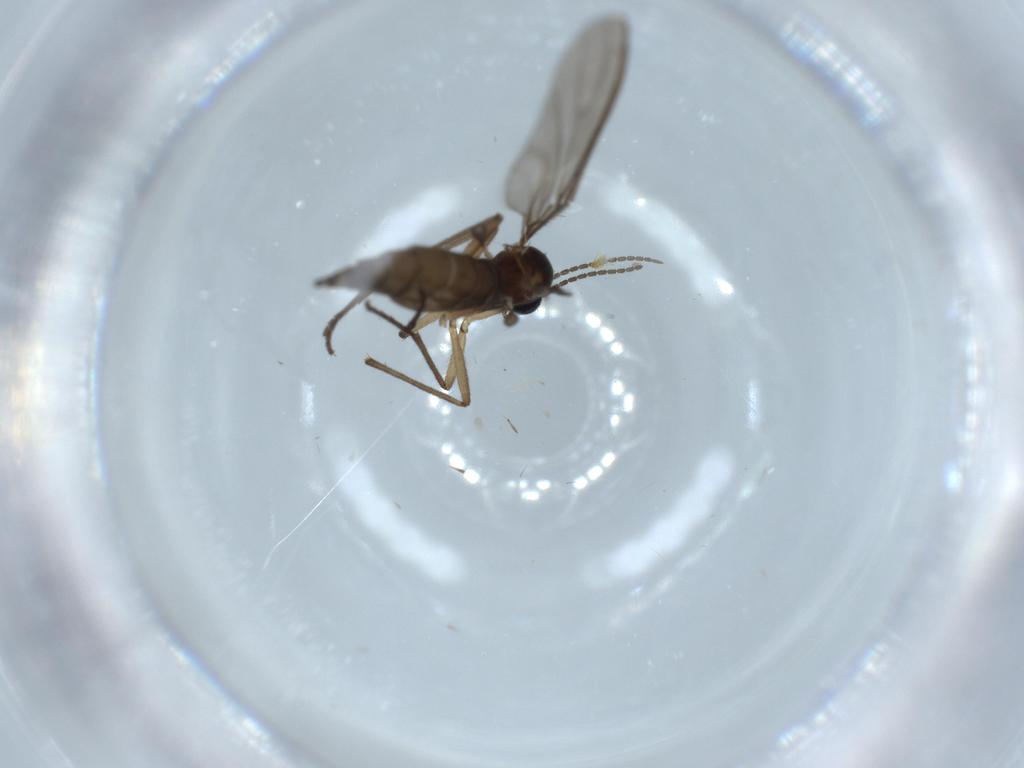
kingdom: Animalia
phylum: Arthropoda
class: Insecta
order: Diptera
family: Sciaridae
